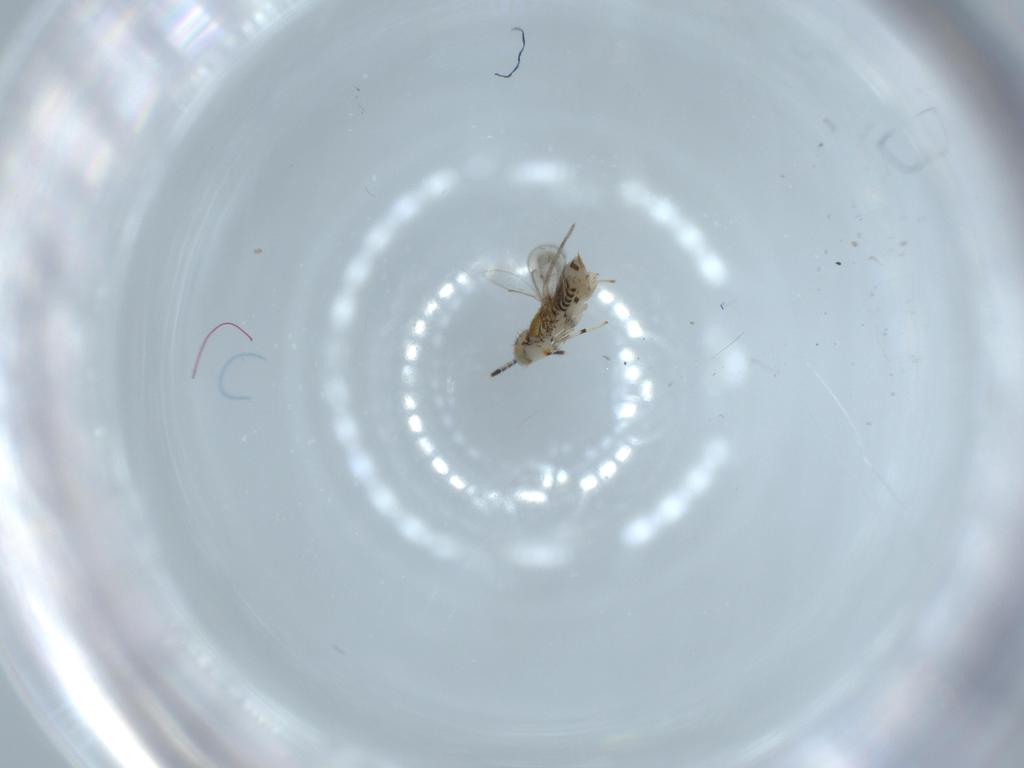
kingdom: Animalia
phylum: Arthropoda
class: Insecta
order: Hymenoptera
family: Aphelinidae
